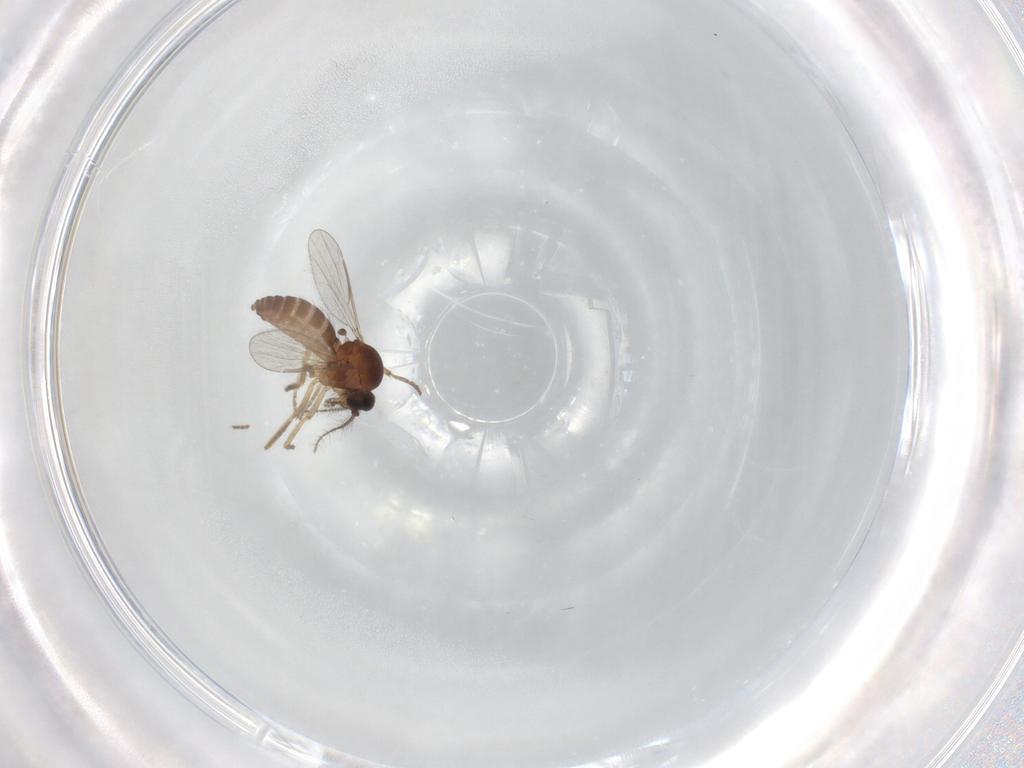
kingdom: Animalia
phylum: Arthropoda
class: Insecta
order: Diptera
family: Ceratopogonidae
